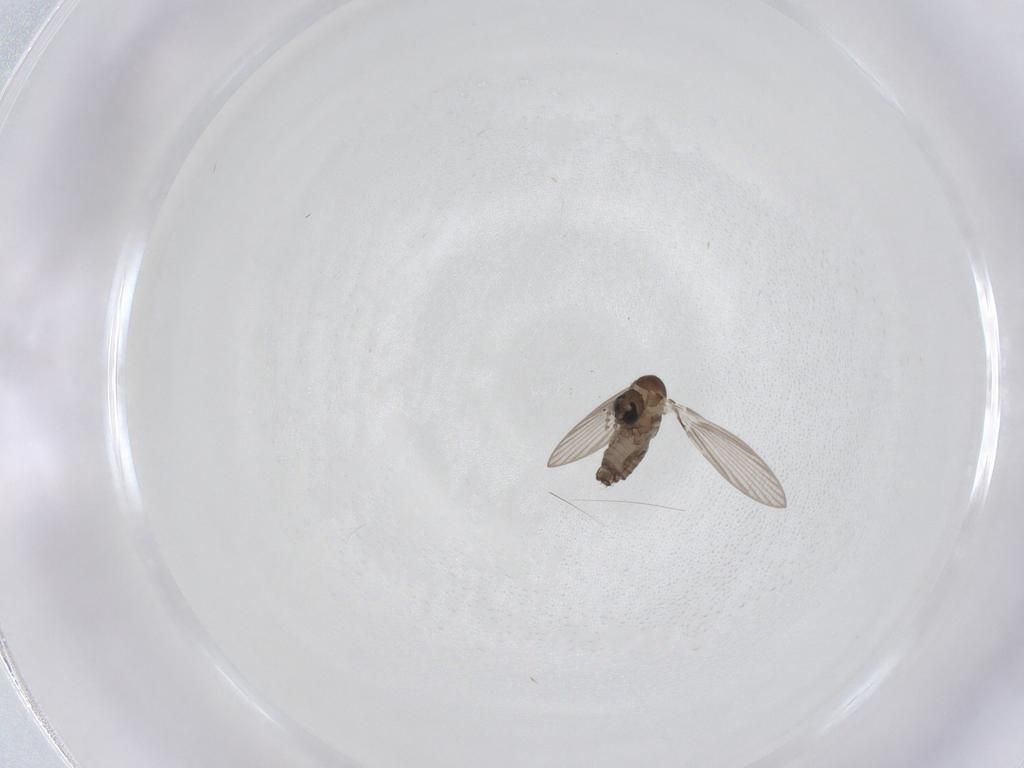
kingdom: Animalia
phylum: Arthropoda
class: Insecta
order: Diptera
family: Psychodidae
